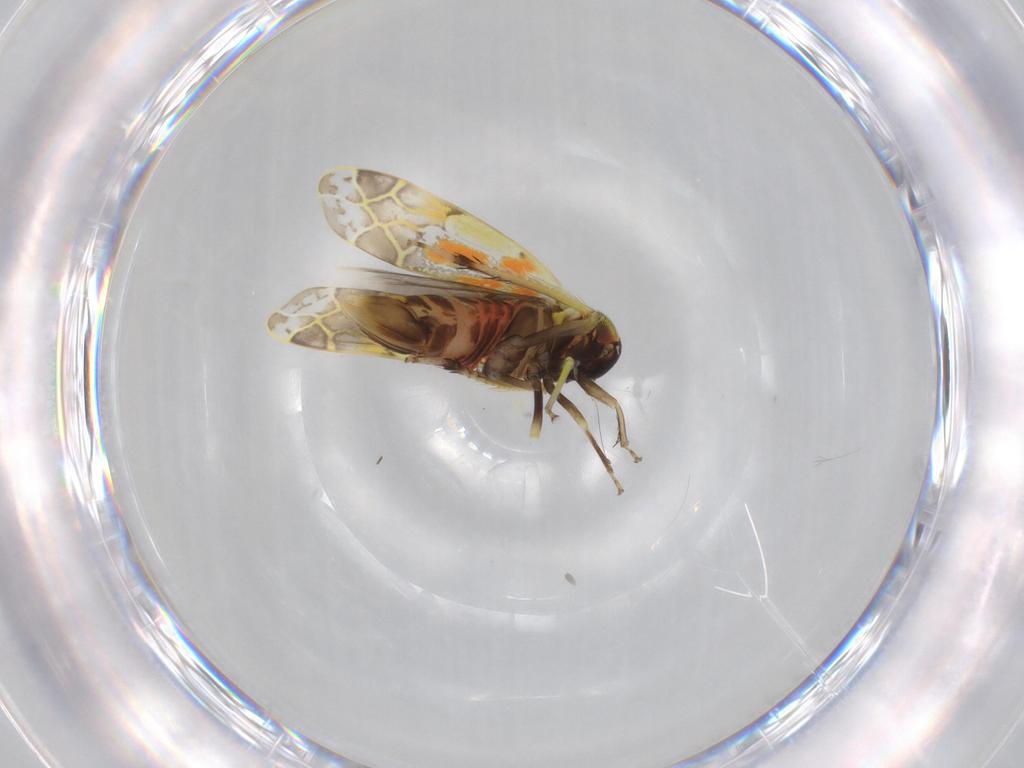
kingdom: Animalia
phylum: Arthropoda
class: Insecta
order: Hemiptera
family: Cicadellidae
